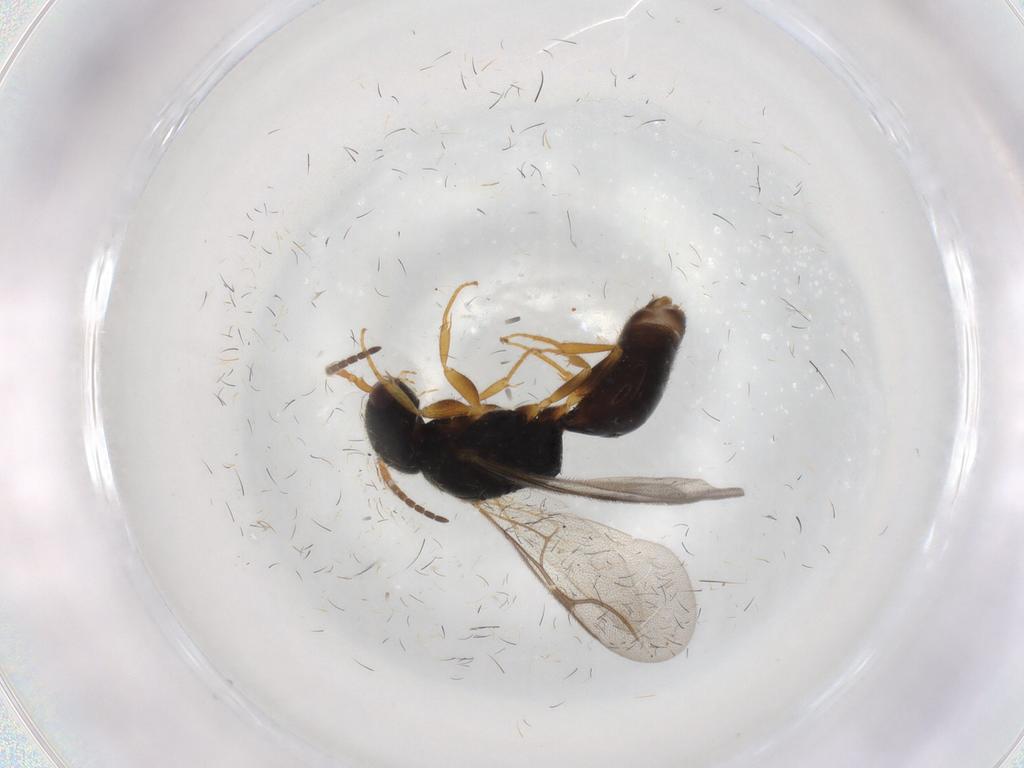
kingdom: Animalia
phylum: Arthropoda
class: Insecta
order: Hymenoptera
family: Bethylidae
